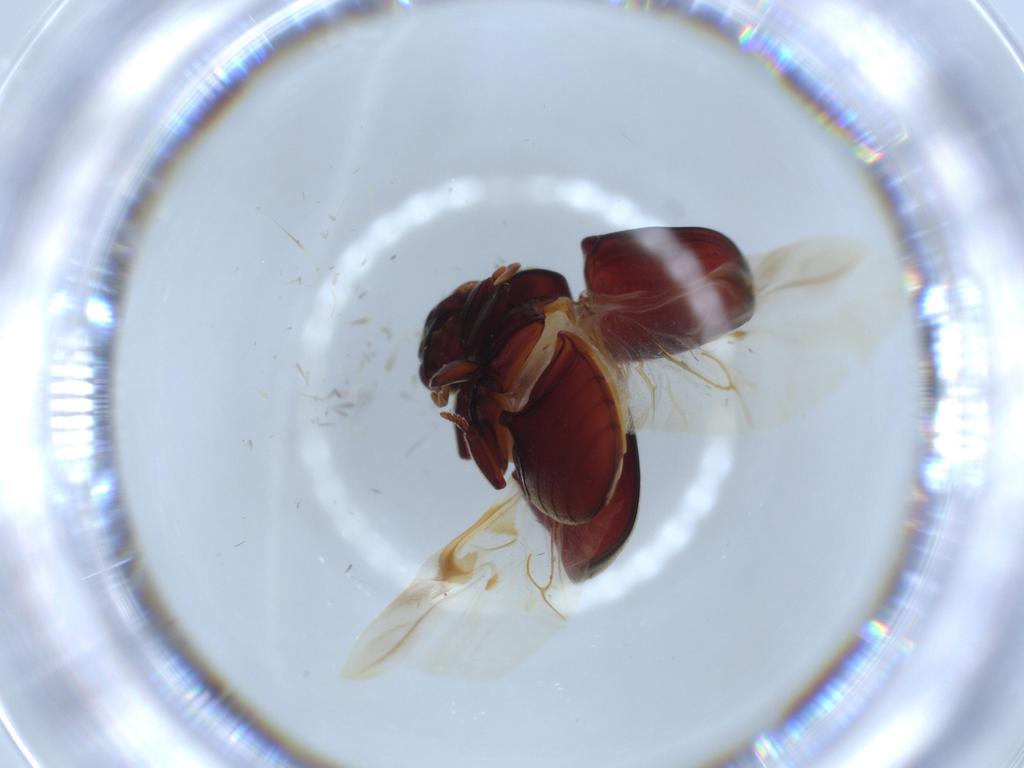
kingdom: Animalia
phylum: Arthropoda
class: Insecta
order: Coleoptera
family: Ptinidae
